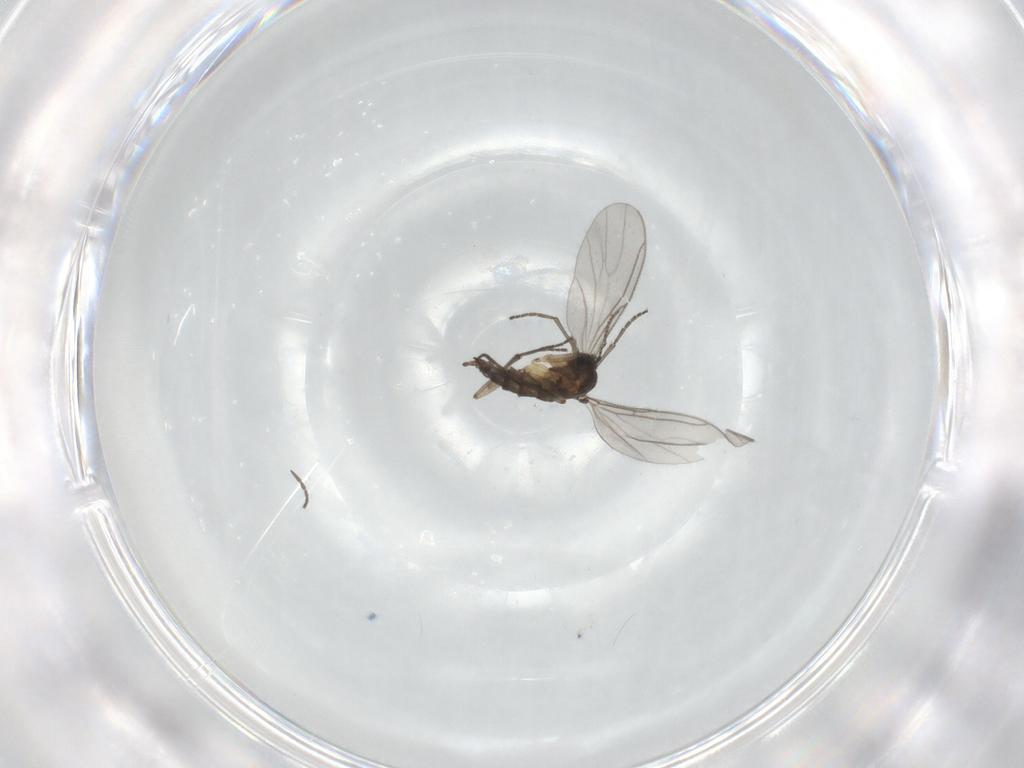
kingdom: Animalia
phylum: Arthropoda
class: Insecta
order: Diptera
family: Sciaridae
